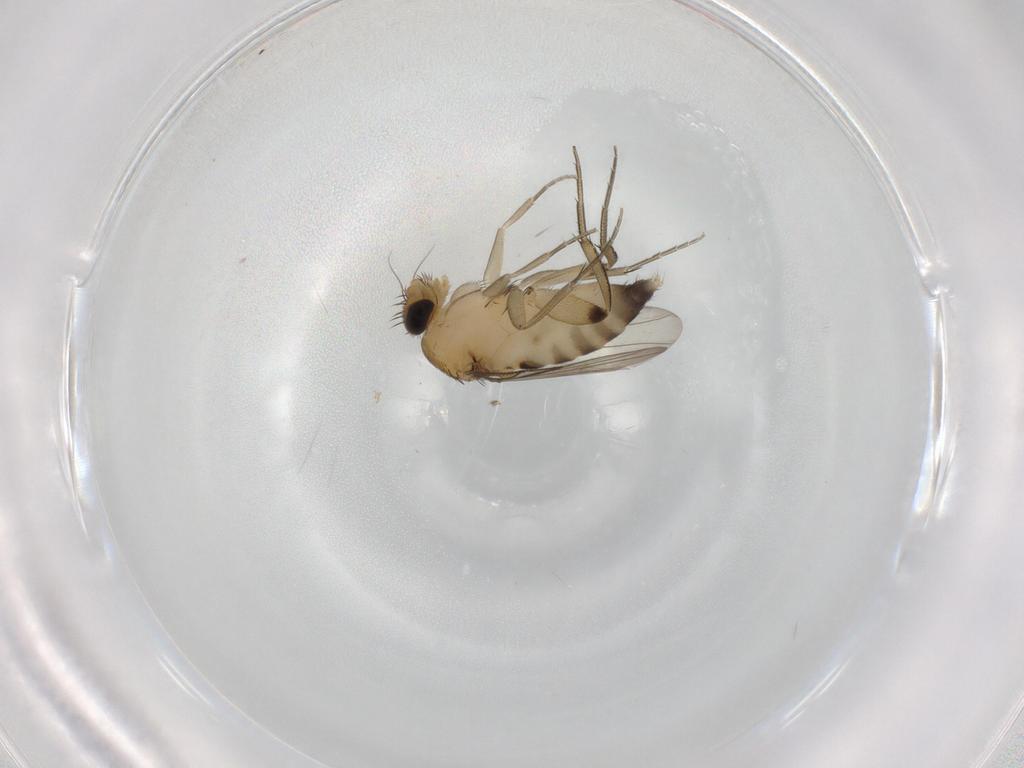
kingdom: Animalia
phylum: Arthropoda
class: Insecta
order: Diptera
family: Phoridae
